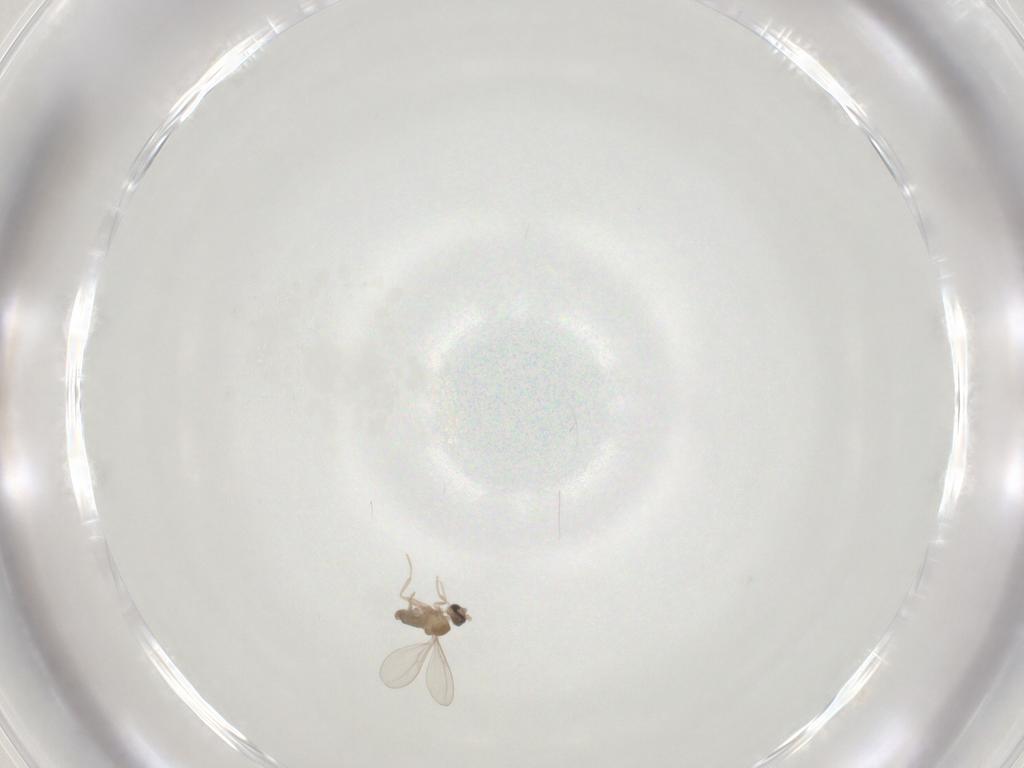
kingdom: Animalia
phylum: Arthropoda
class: Insecta
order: Diptera
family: Cecidomyiidae
